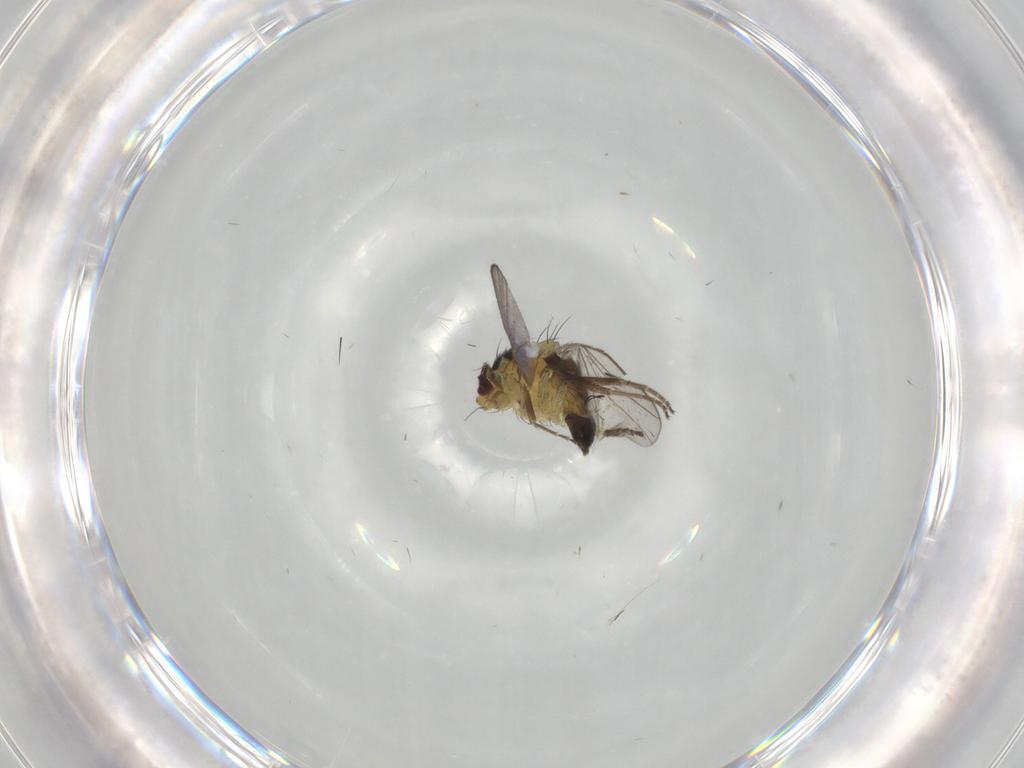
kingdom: Animalia
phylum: Arthropoda
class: Insecta
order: Diptera
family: Agromyzidae
